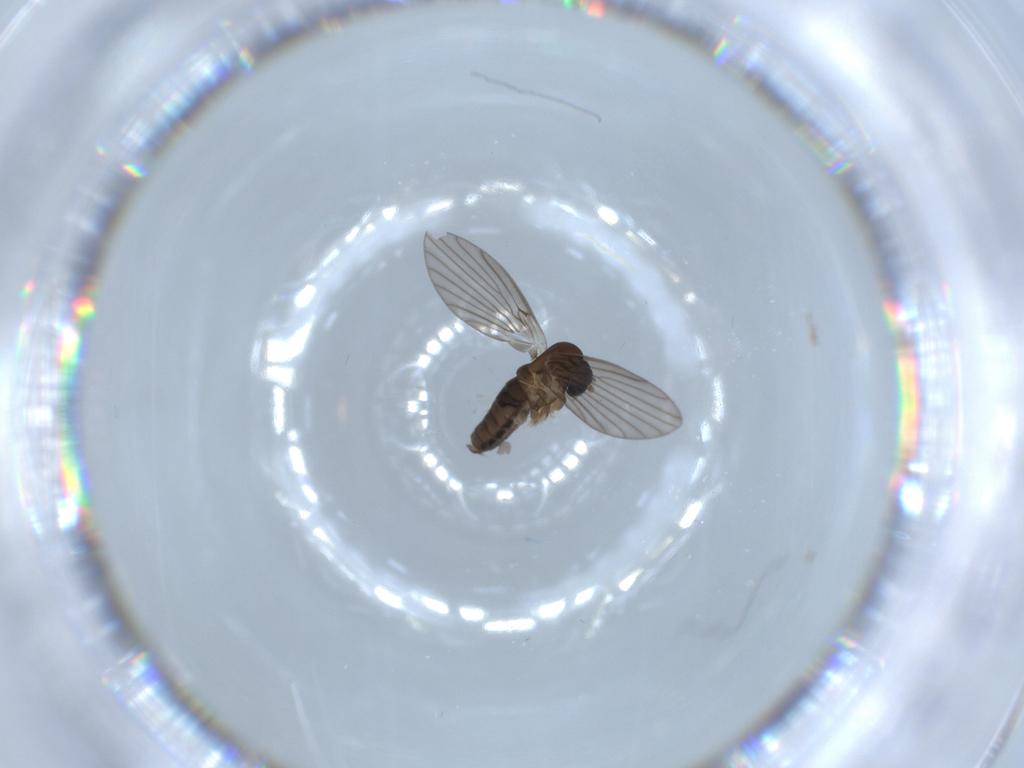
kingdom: Animalia
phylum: Arthropoda
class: Insecta
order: Diptera
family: Psychodidae
